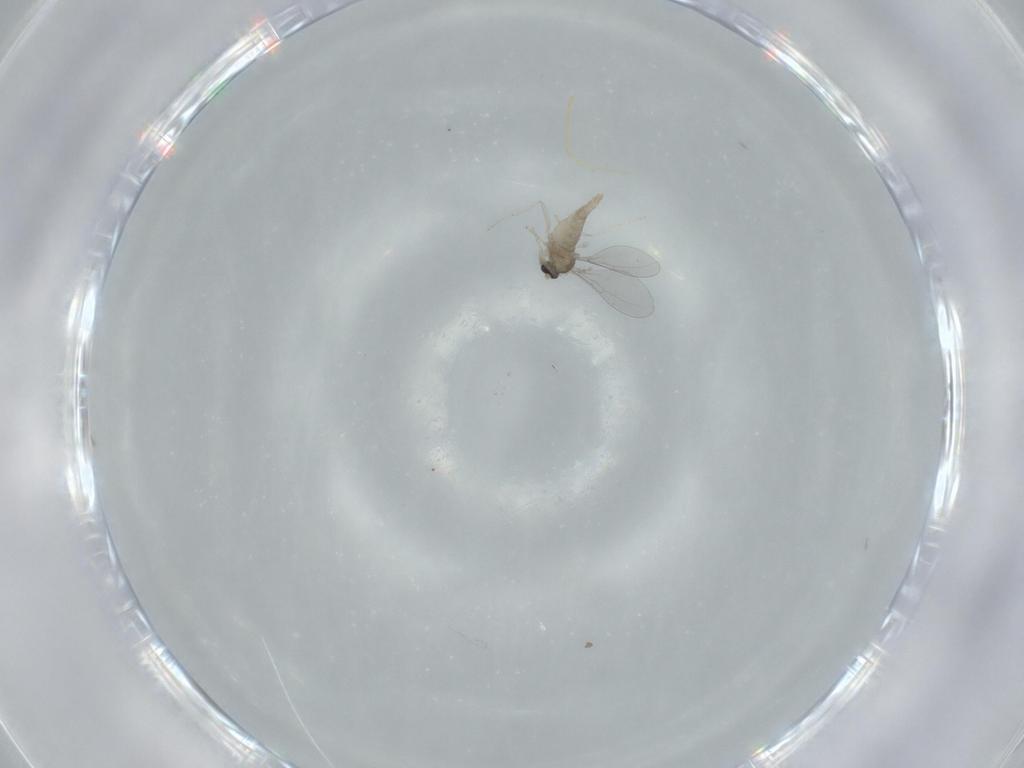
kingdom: Animalia
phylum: Arthropoda
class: Insecta
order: Diptera
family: Cecidomyiidae
